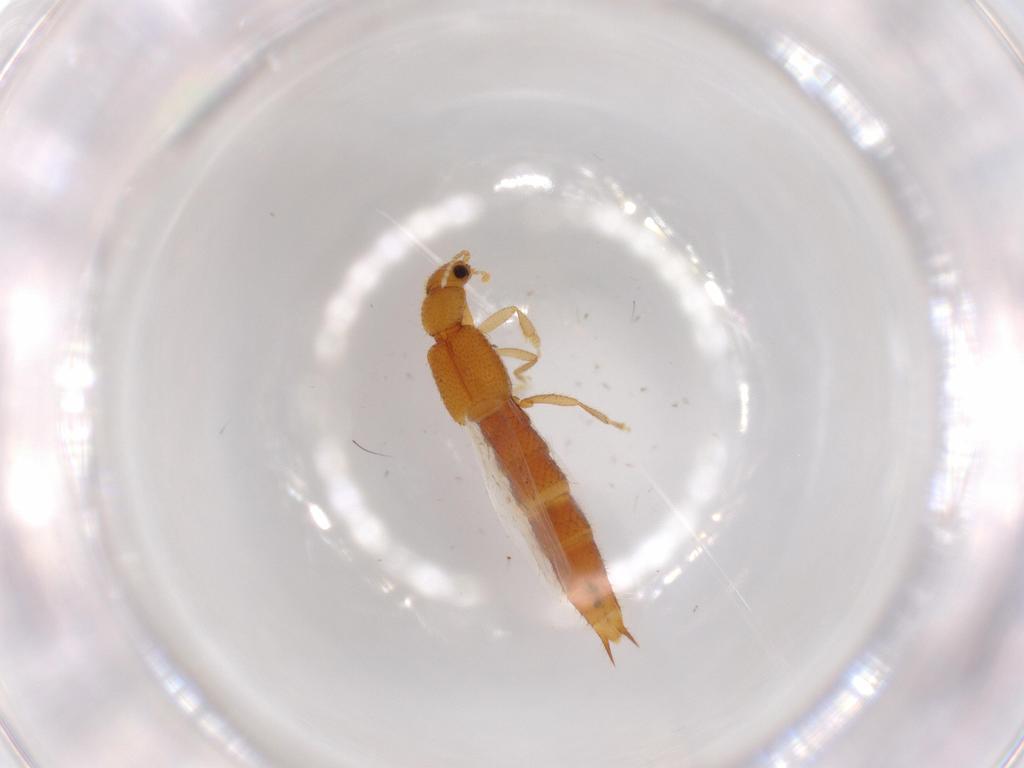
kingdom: Animalia
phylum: Arthropoda
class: Insecta
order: Coleoptera
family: Staphylinidae
